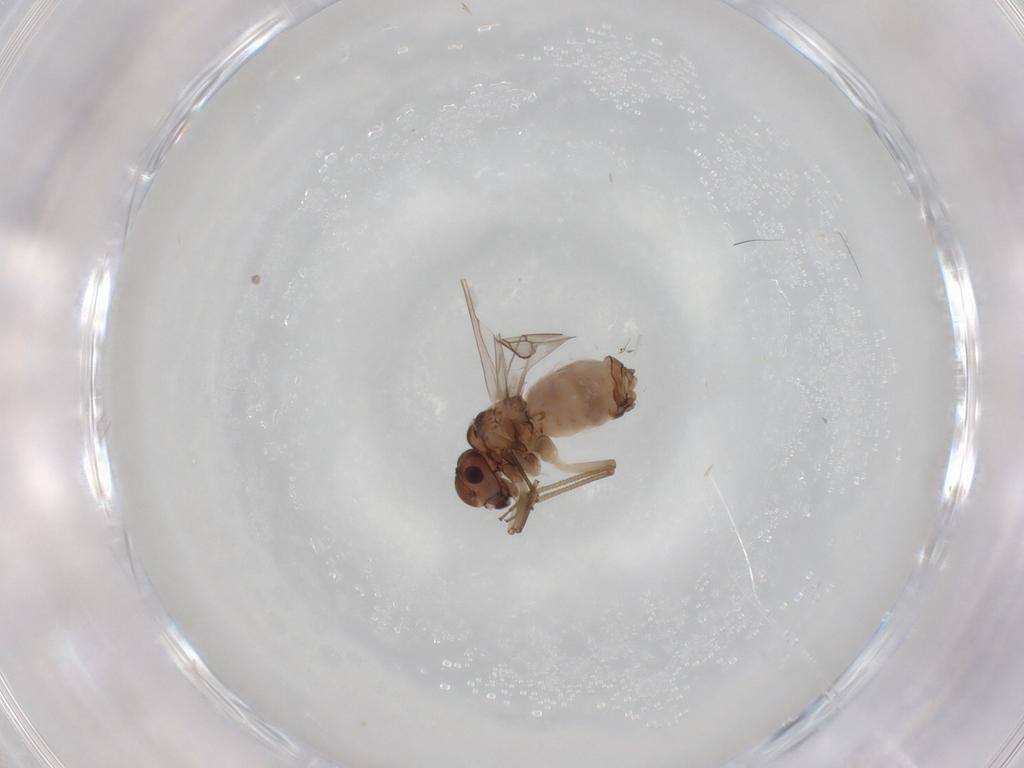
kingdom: Animalia
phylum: Arthropoda
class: Insecta
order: Psocodea
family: Peripsocidae
